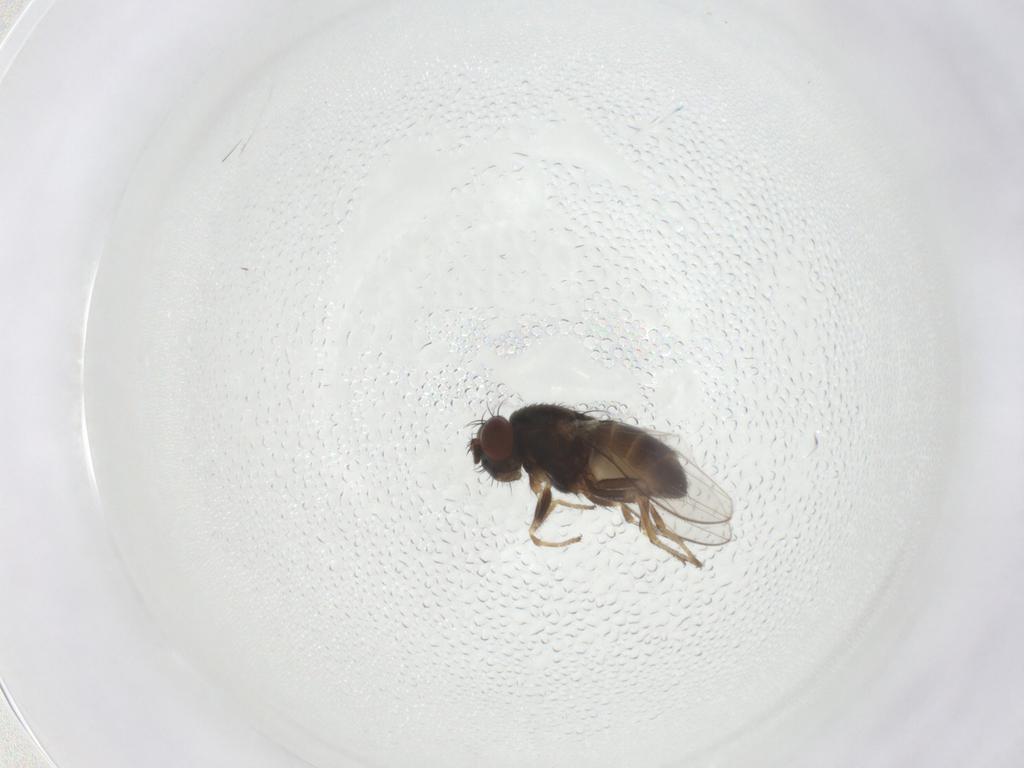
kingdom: Animalia
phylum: Arthropoda
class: Insecta
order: Diptera
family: Ephydridae
